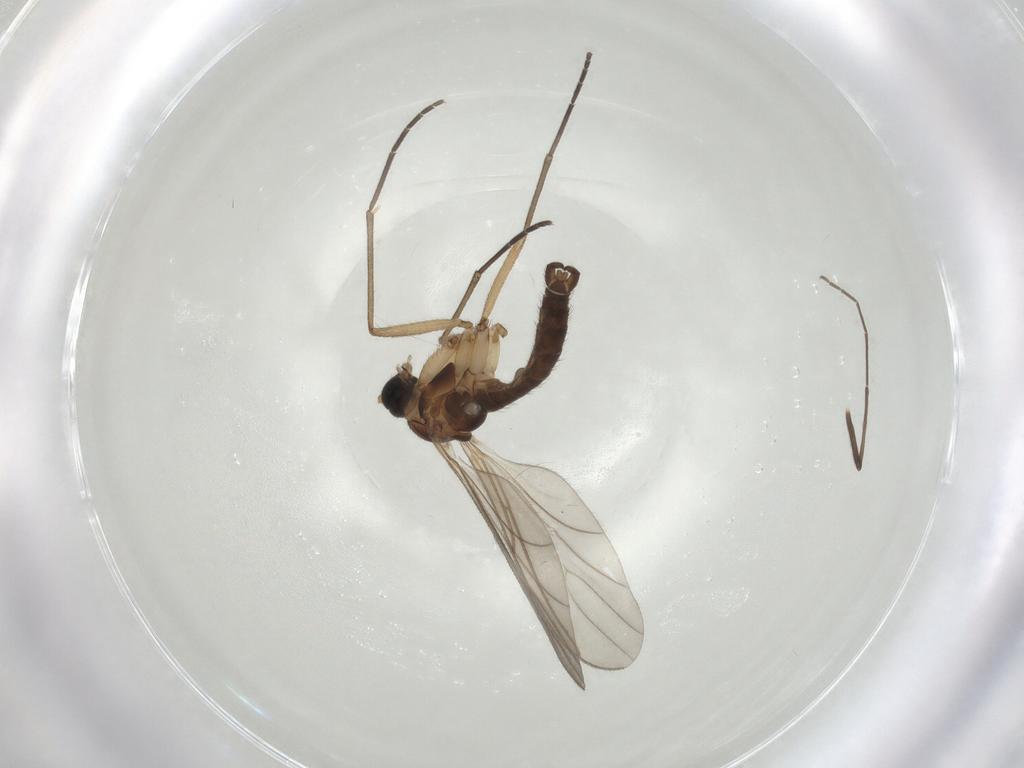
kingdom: Animalia
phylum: Arthropoda
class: Insecta
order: Diptera
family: Sciaridae
